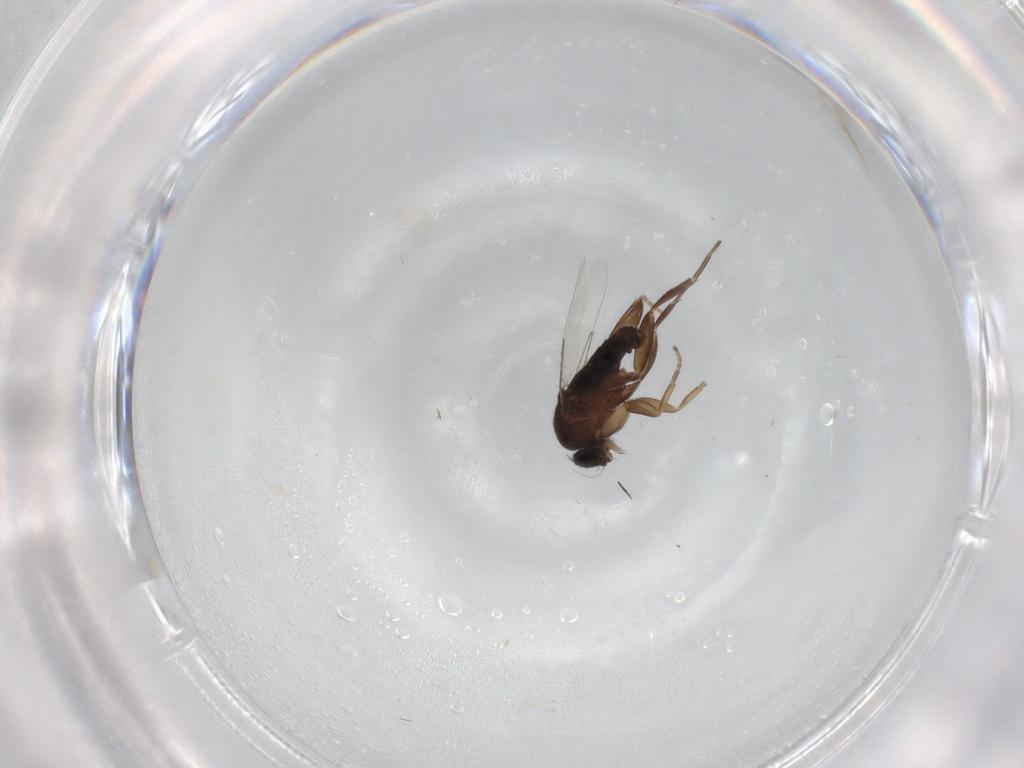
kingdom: Animalia
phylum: Arthropoda
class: Insecta
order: Diptera
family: Phoridae
